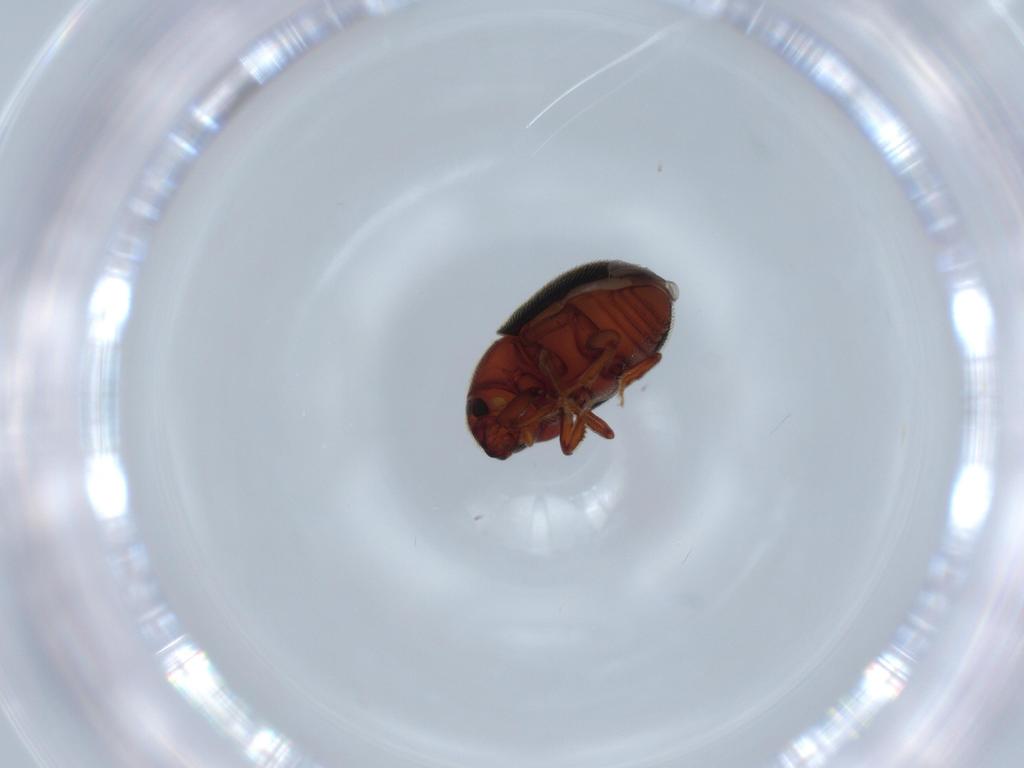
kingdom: Animalia
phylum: Arthropoda
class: Insecta
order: Coleoptera
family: Curculionidae
